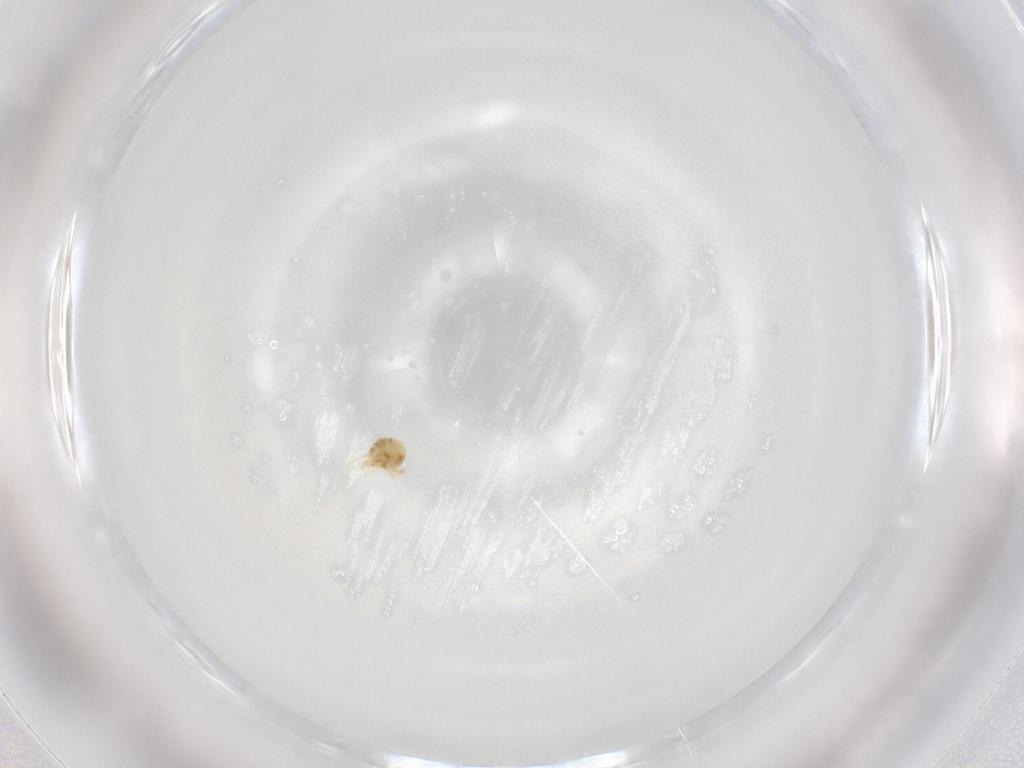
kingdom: Animalia
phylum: Arthropoda
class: Arachnida
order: Trombidiformes
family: Eupodidae
